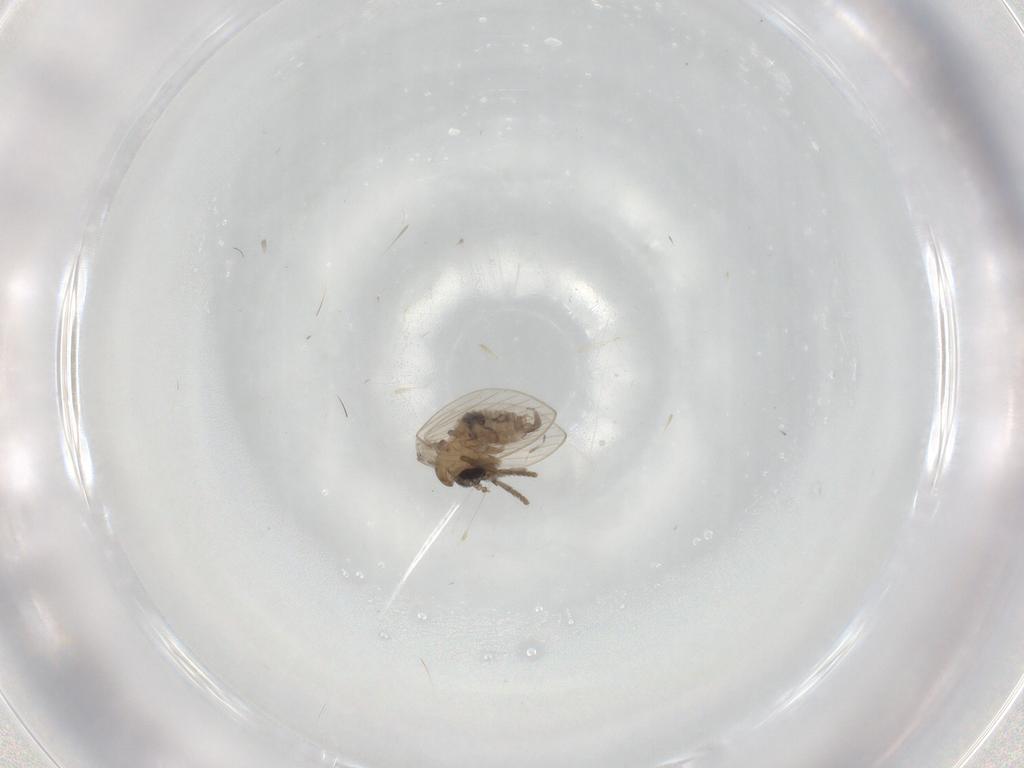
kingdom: Animalia
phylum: Arthropoda
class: Insecta
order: Diptera
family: Psychodidae
